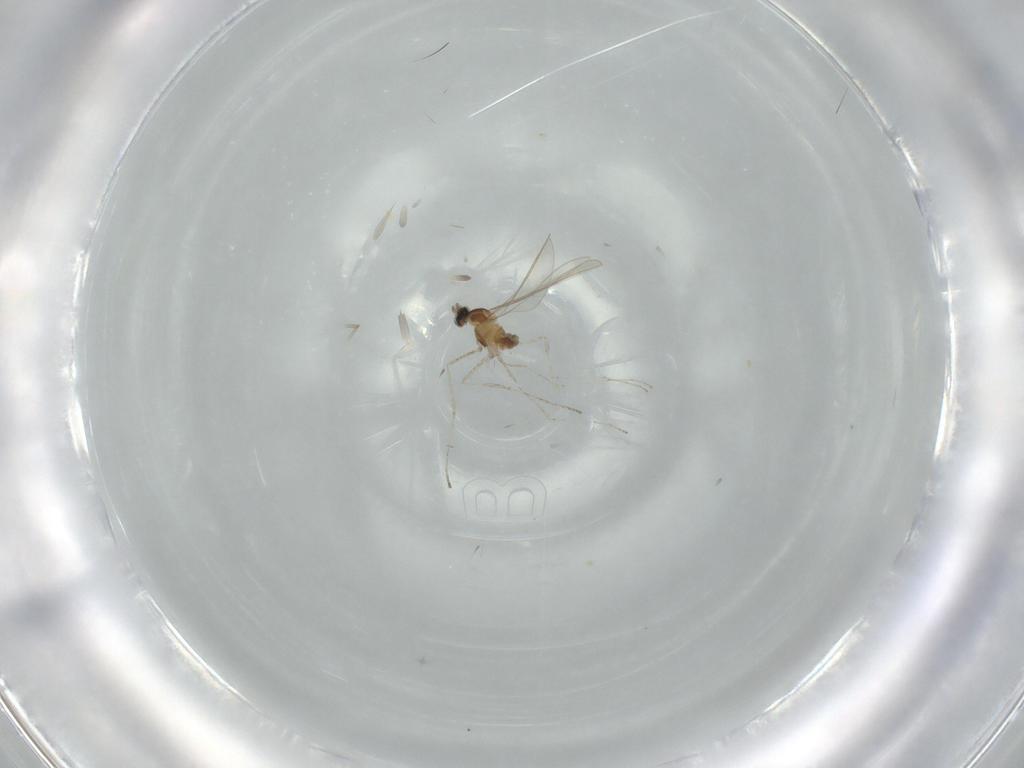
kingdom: Animalia
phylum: Arthropoda
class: Insecta
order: Diptera
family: Cecidomyiidae
